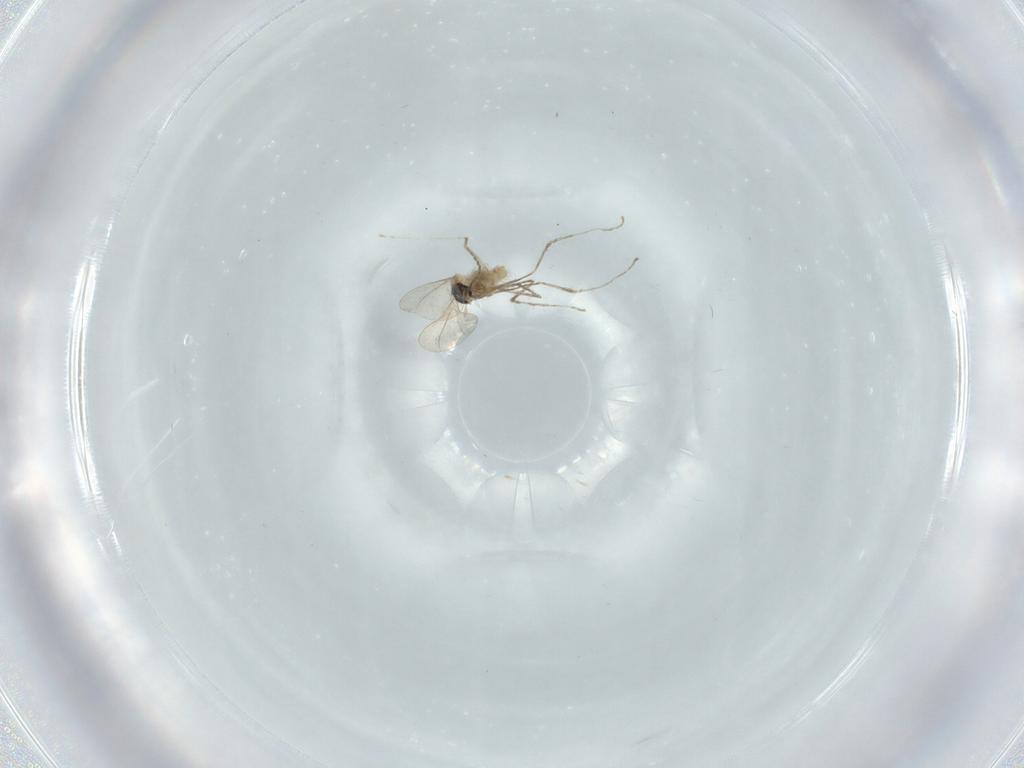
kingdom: Animalia
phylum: Arthropoda
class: Insecta
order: Diptera
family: Cecidomyiidae
